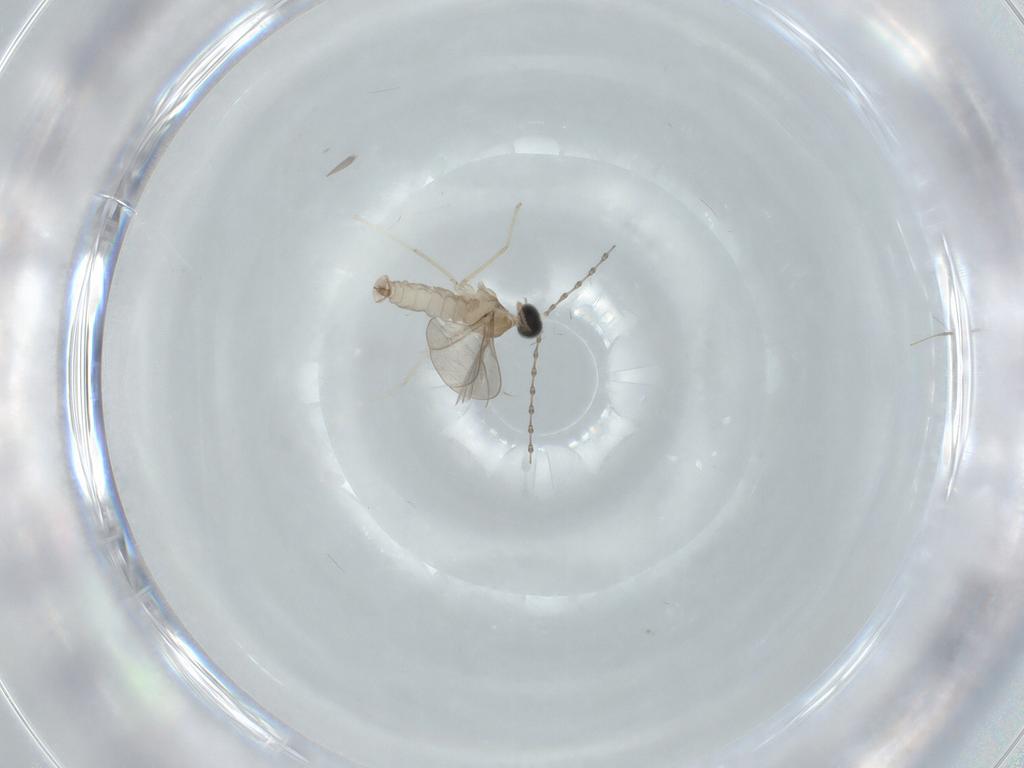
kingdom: Animalia
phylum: Arthropoda
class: Insecta
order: Diptera
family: Cecidomyiidae
